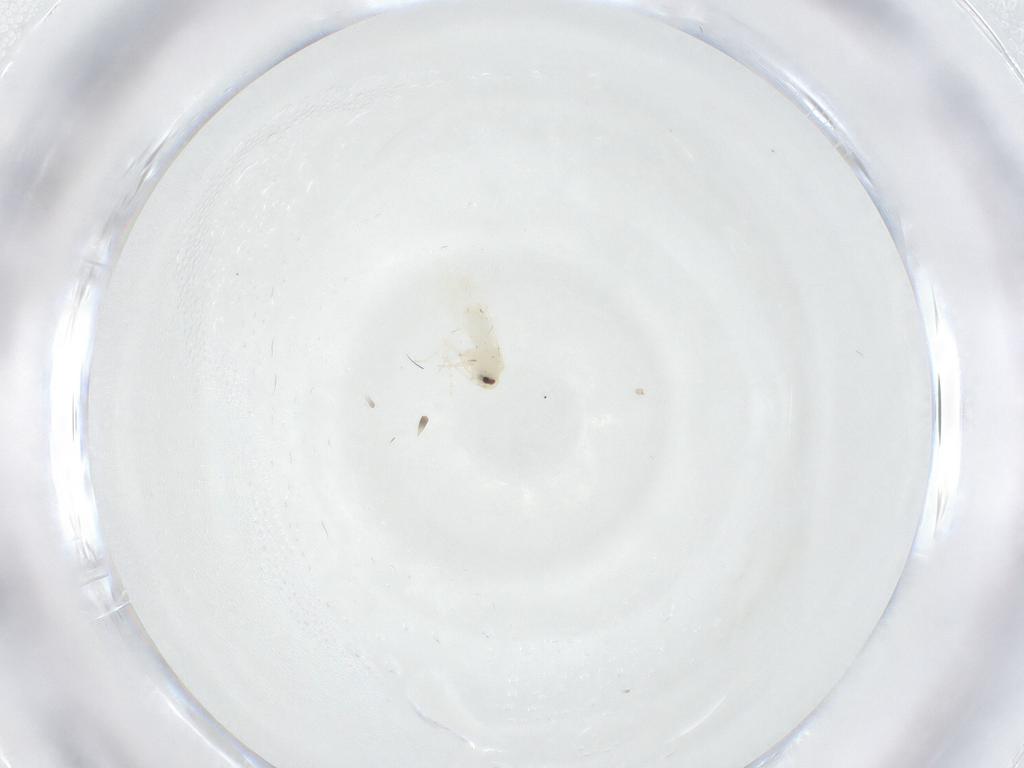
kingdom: Animalia
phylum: Arthropoda
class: Insecta
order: Hemiptera
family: Aleyrodidae
